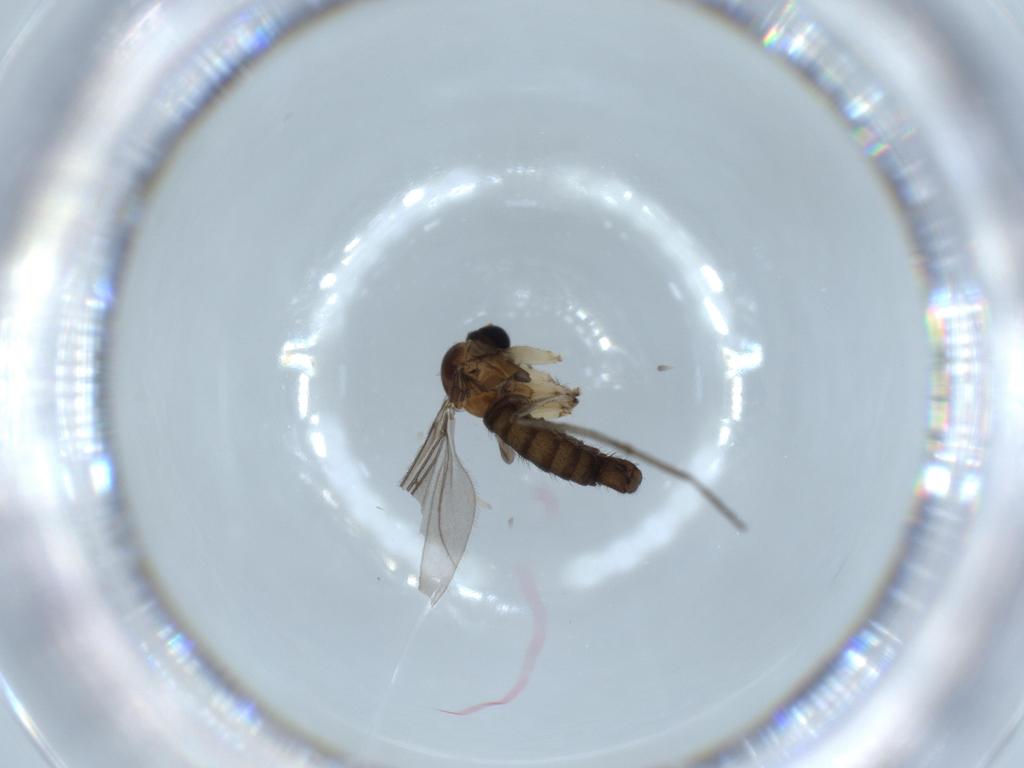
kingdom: Animalia
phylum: Arthropoda
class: Insecta
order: Diptera
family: Sciaridae
